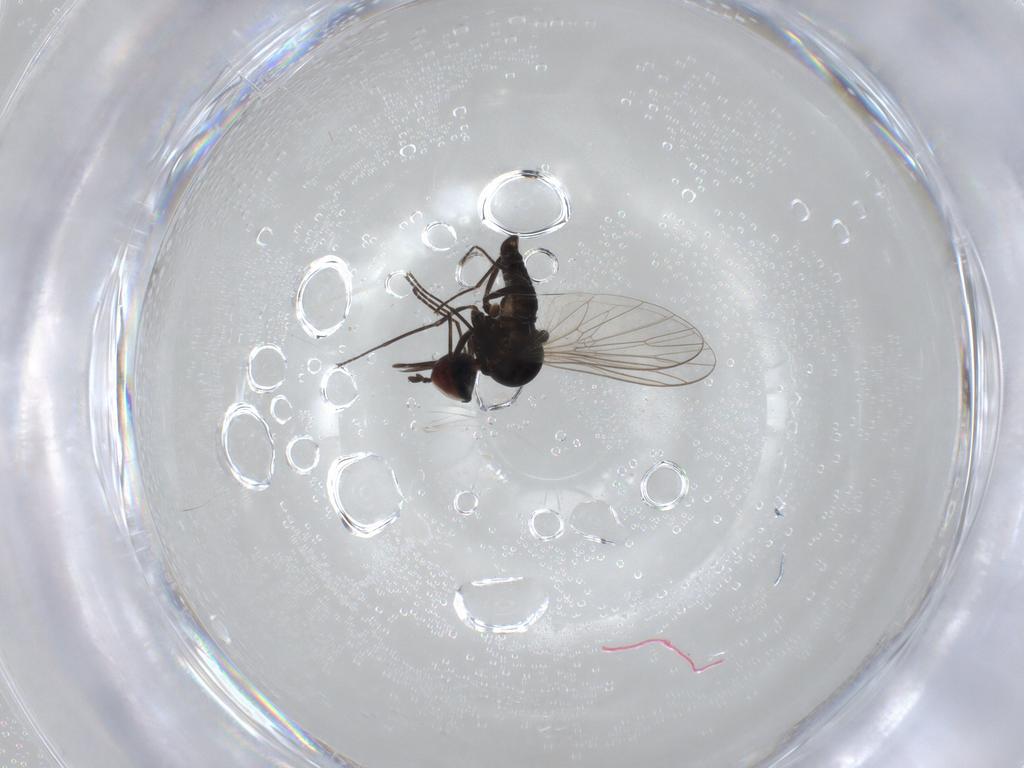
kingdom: Animalia
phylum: Arthropoda
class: Insecta
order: Diptera
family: Bombyliidae
